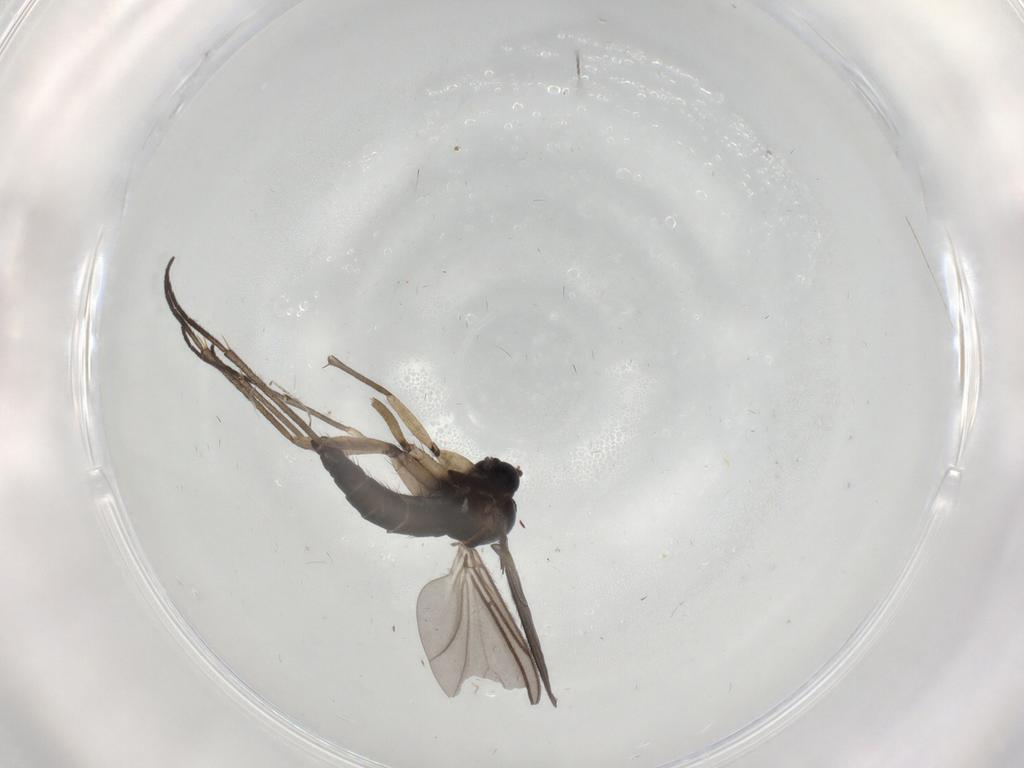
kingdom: Animalia
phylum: Arthropoda
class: Insecta
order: Diptera
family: Sciaridae
